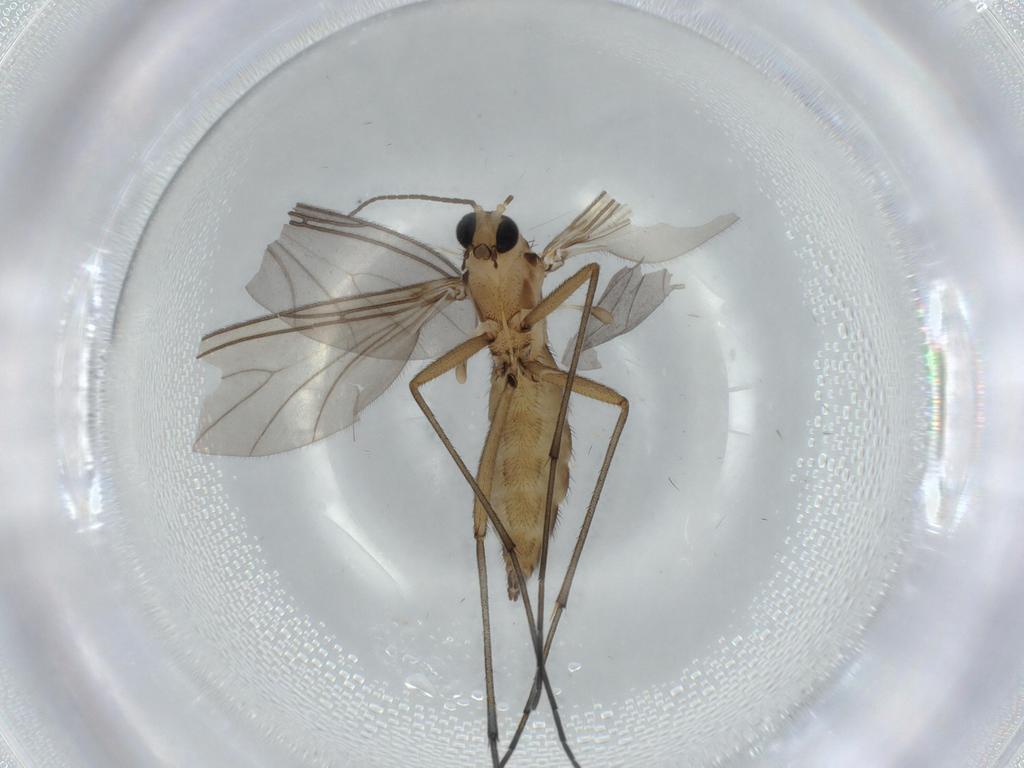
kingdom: Animalia
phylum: Arthropoda
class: Insecta
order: Diptera
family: Sciaridae
